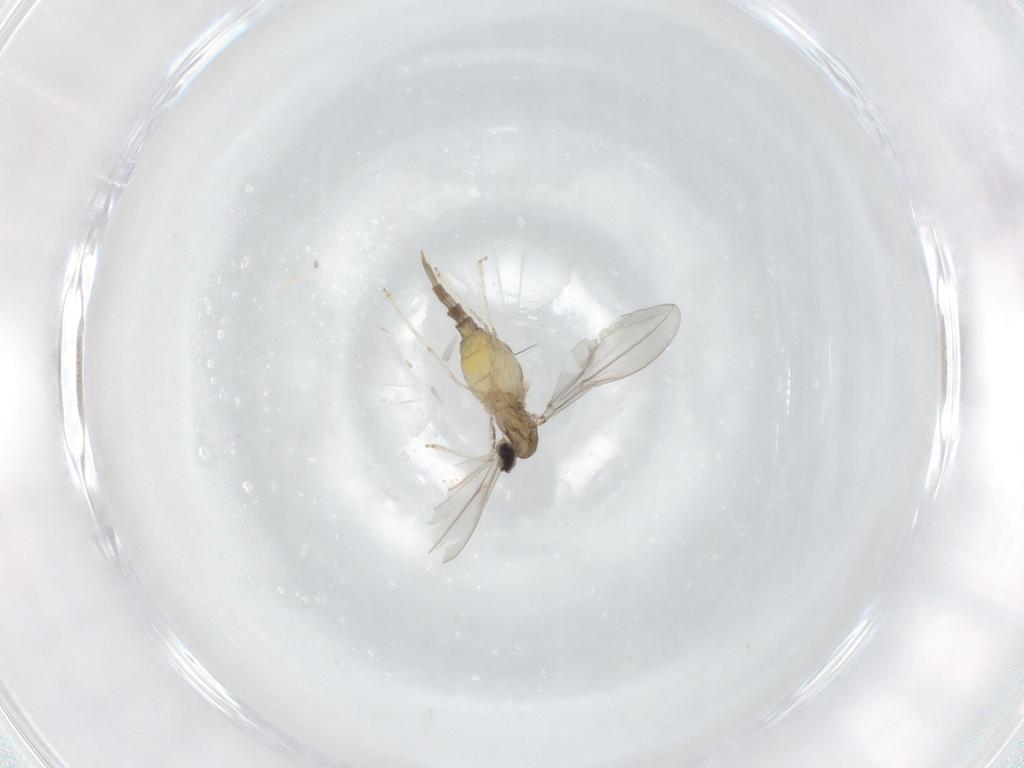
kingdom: Animalia
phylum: Arthropoda
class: Insecta
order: Diptera
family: Cecidomyiidae
